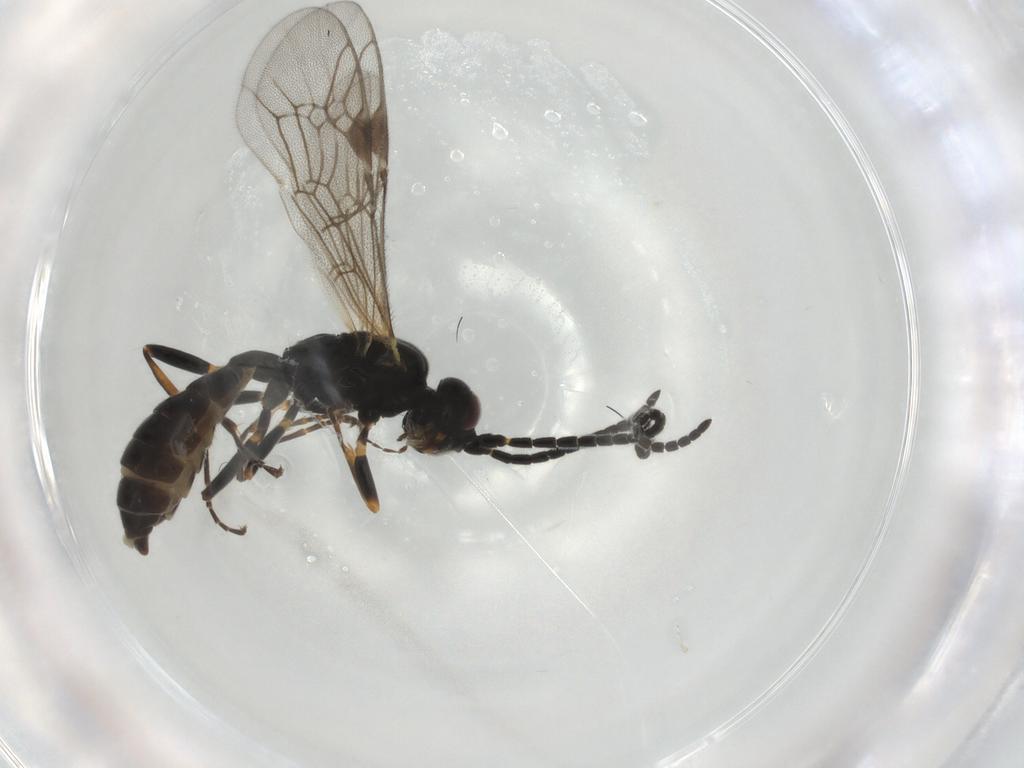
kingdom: Animalia
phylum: Arthropoda
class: Insecta
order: Hymenoptera
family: Ichneumonidae
